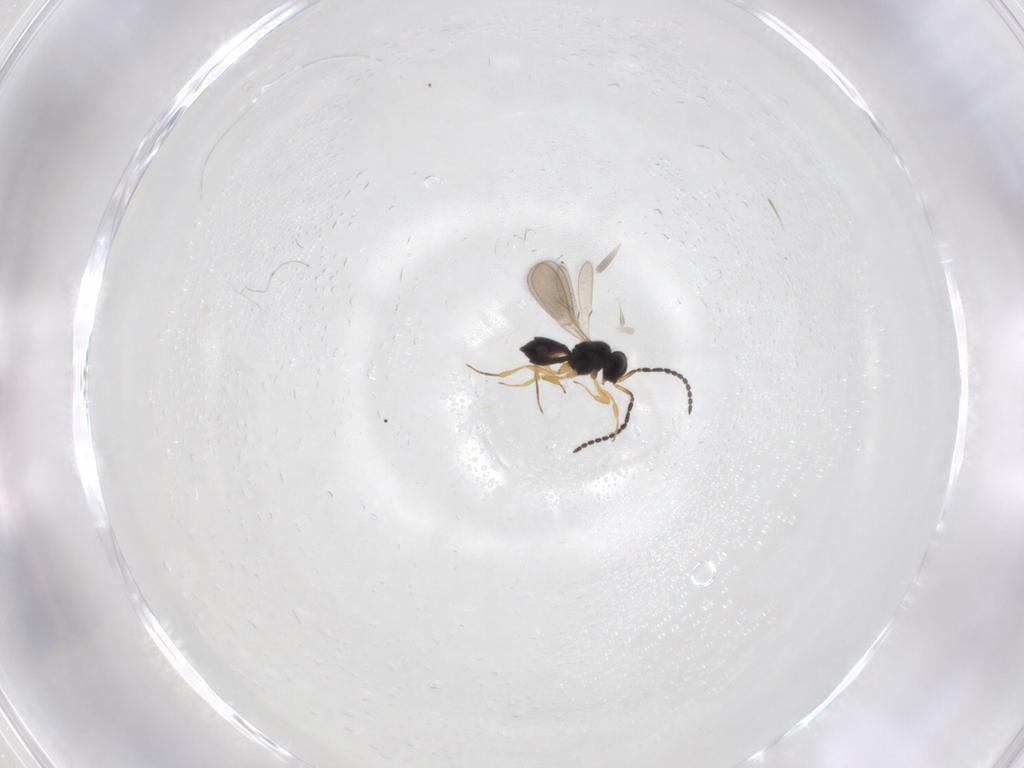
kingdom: Animalia
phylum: Arthropoda
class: Insecta
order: Hymenoptera
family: Scelionidae
